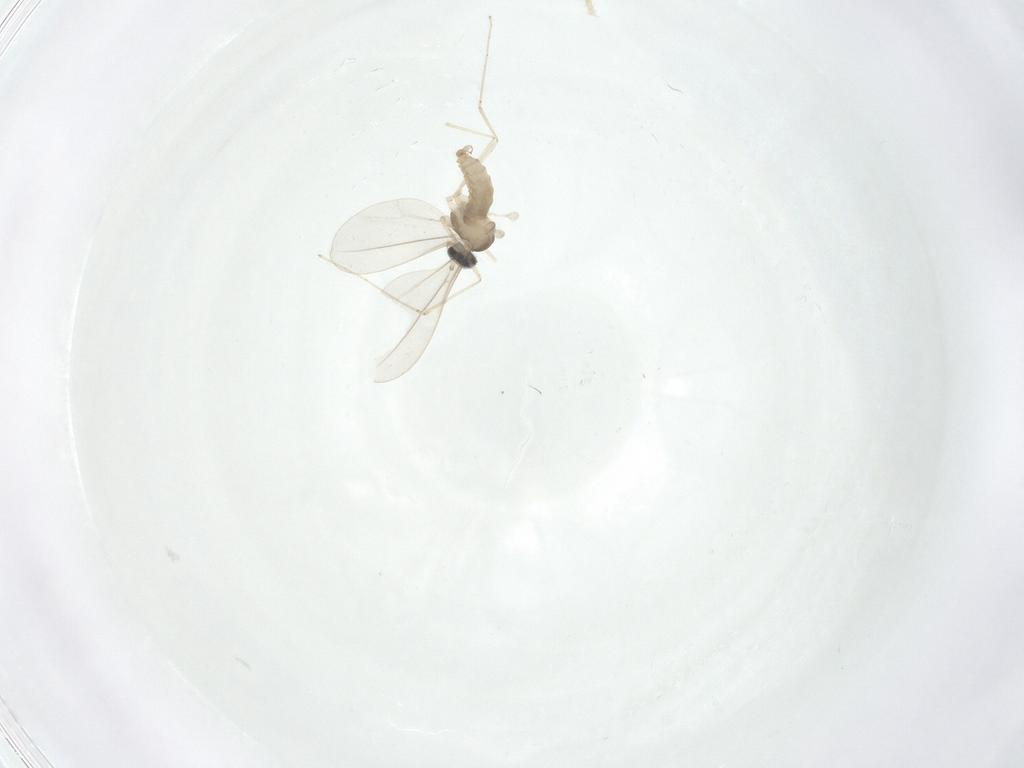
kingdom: Animalia
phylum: Arthropoda
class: Insecta
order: Diptera
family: Cecidomyiidae
